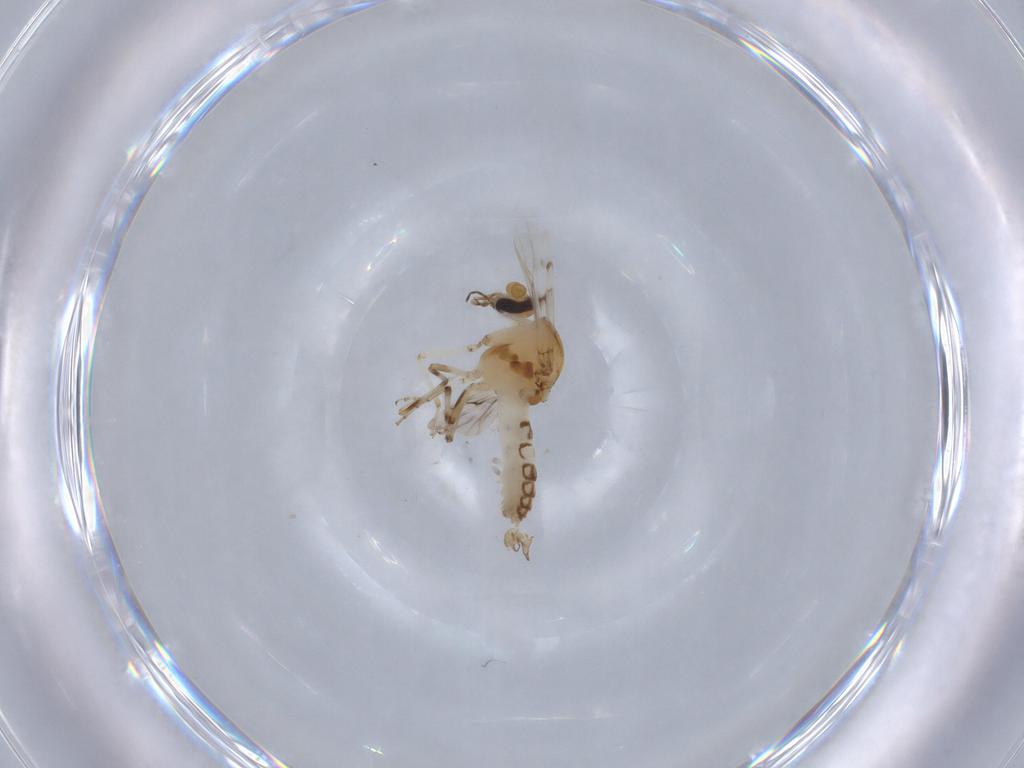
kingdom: Animalia
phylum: Arthropoda
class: Insecta
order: Diptera
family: Ceratopogonidae
